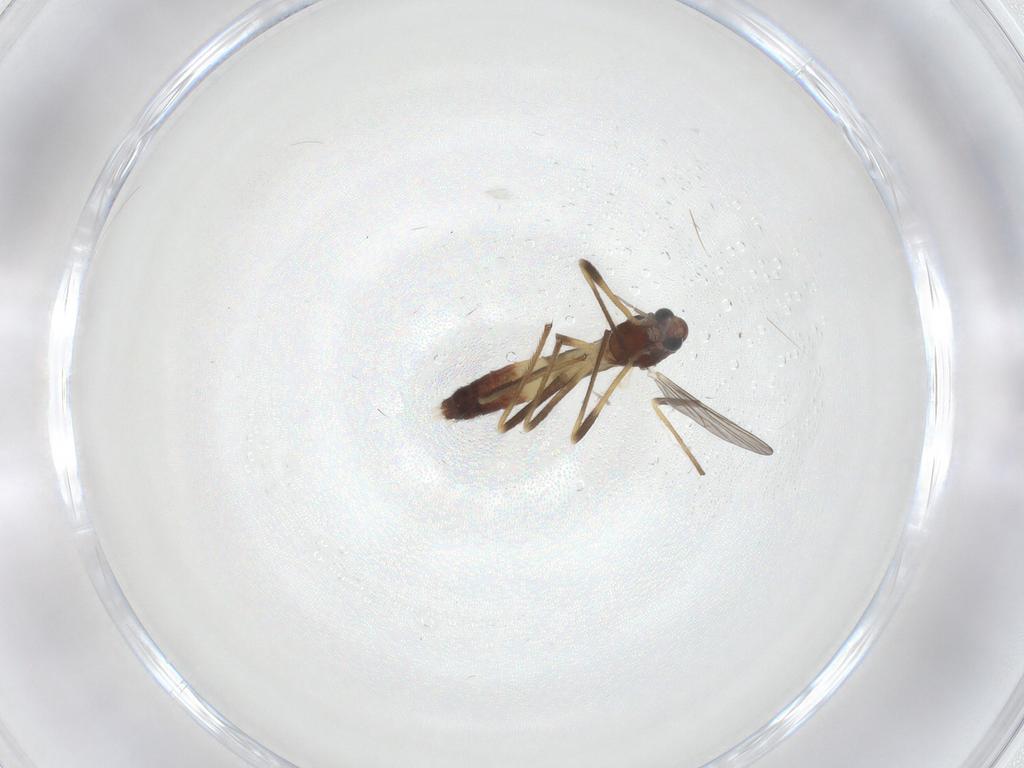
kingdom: Animalia
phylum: Arthropoda
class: Insecta
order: Diptera
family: Chironomidae
